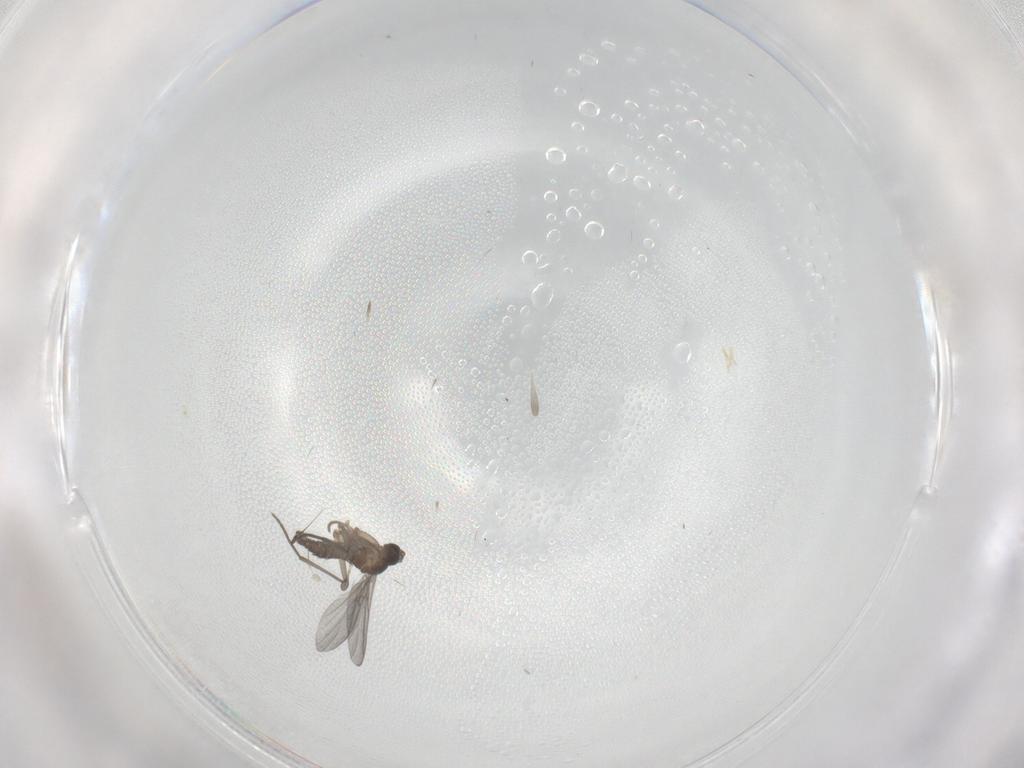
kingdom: Animalia
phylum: Arthropoda
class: Insecta
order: Diptera
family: Sciaridae
